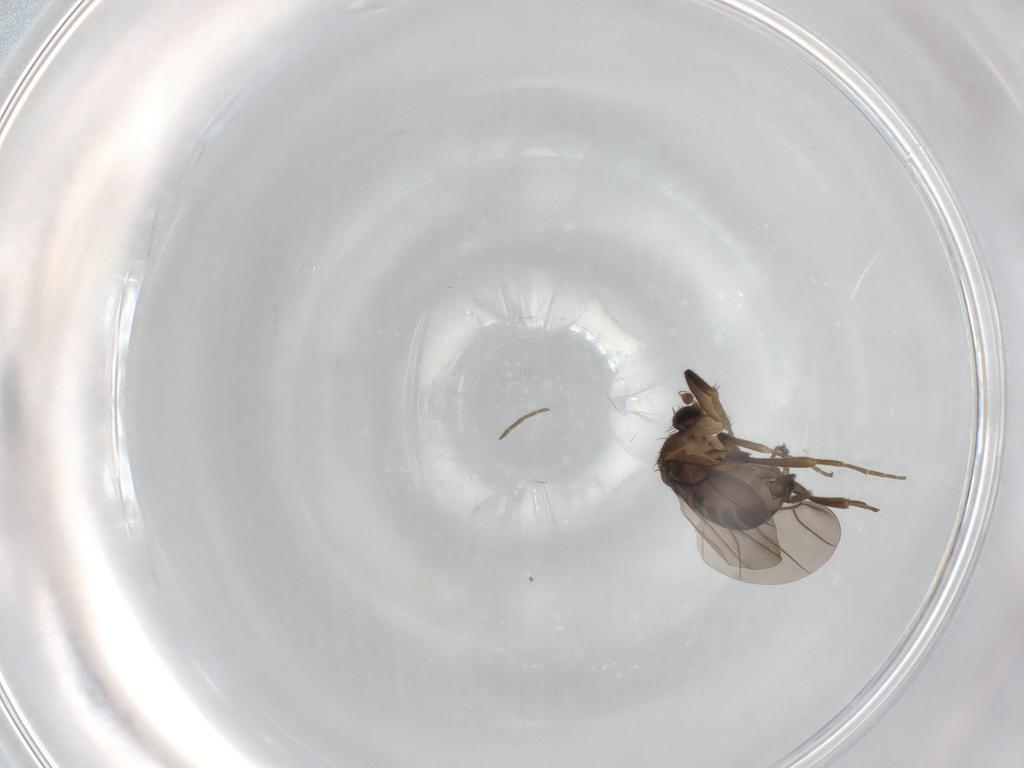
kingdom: Animalia
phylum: Arthropoda
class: Insecta
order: Diptera
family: Phoridae
